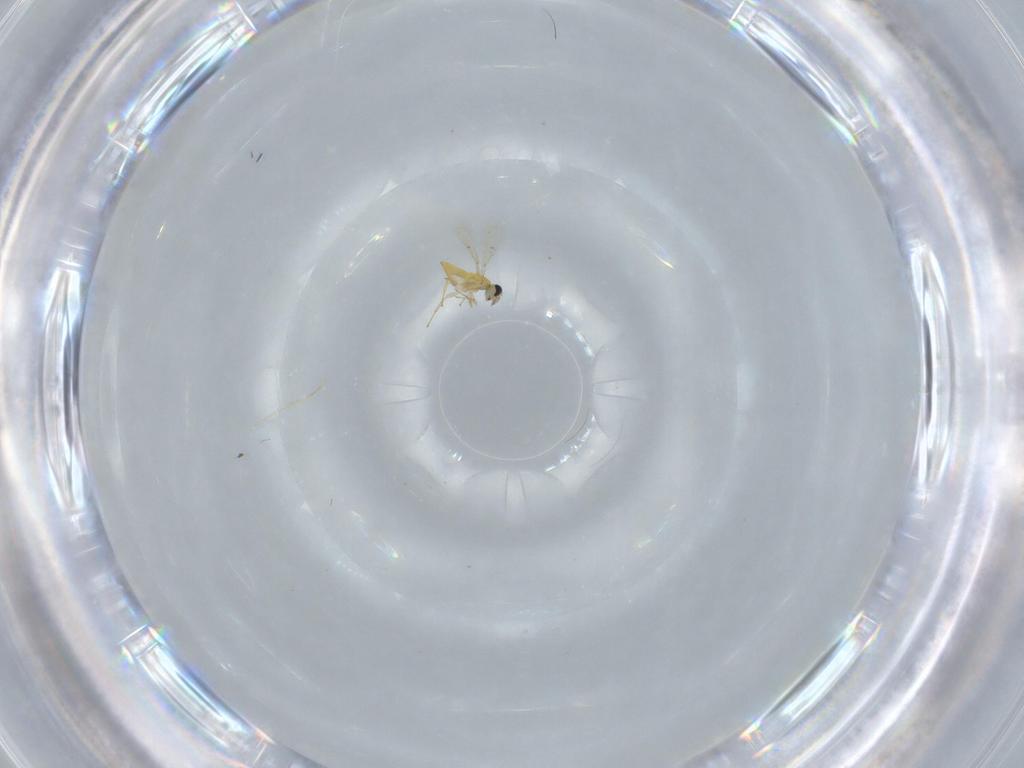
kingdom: Animalia
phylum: Arthropoda
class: Insecta
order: Hymenoptera
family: Trichogrammatidae
